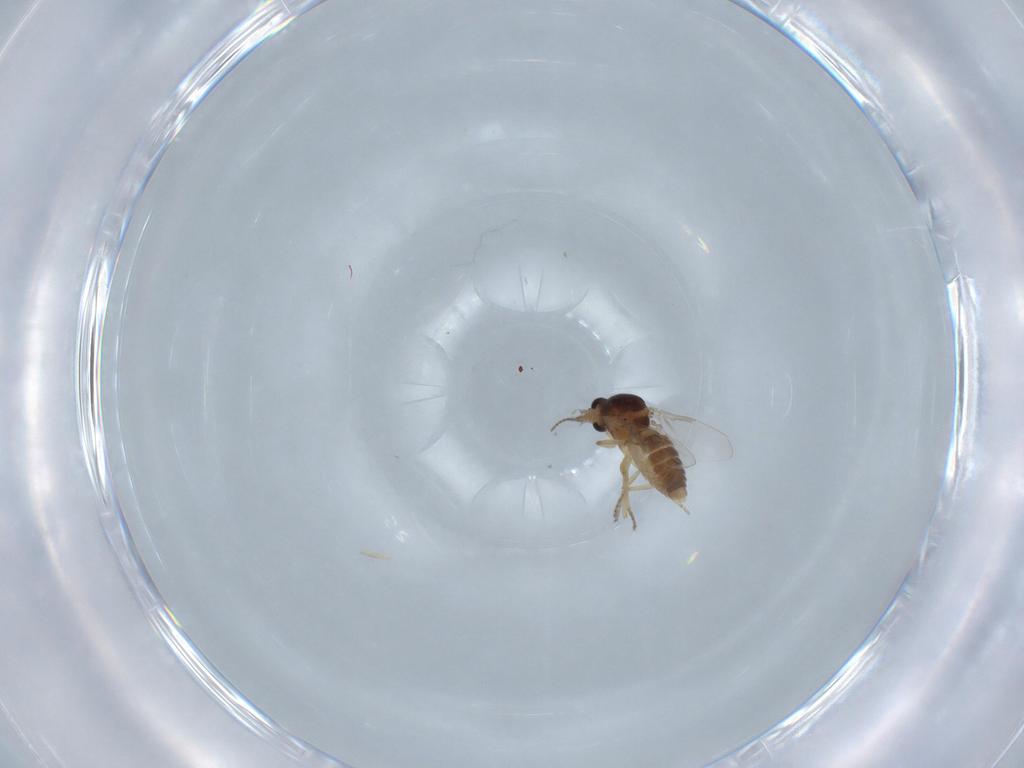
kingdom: Animalia
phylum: Arthropoda
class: Insecta
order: Diptera
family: Ceratopogonidae
